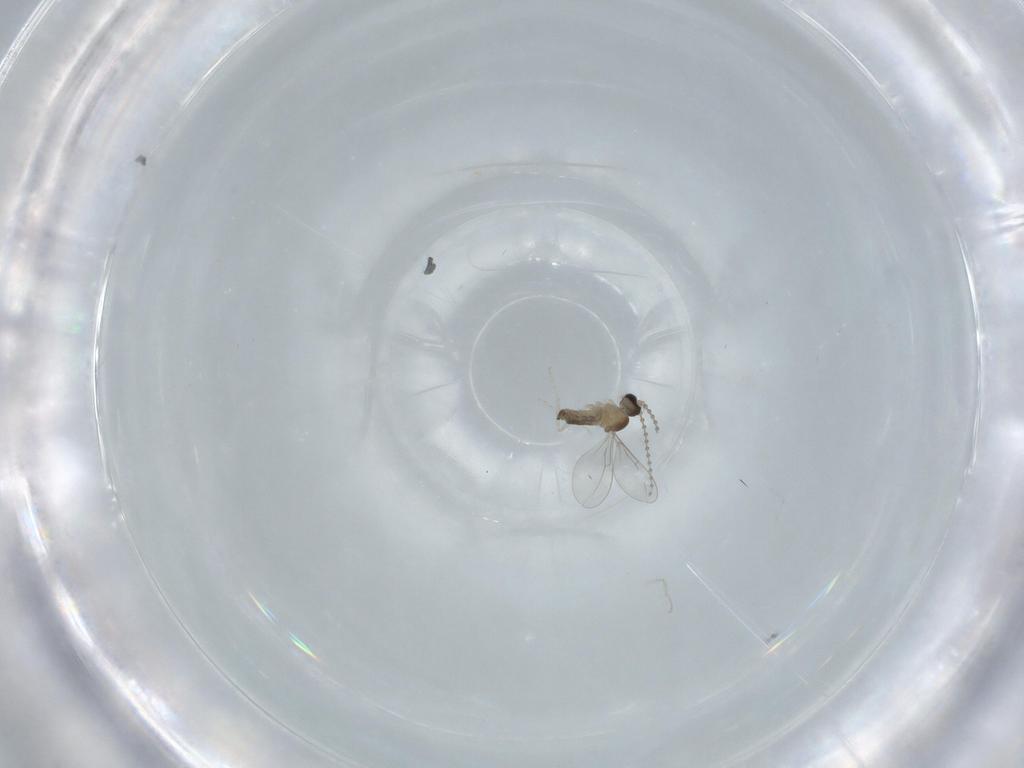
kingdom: Animalia
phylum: Arthropoda
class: Insecta
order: Diptera
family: Cecidomyiidae
